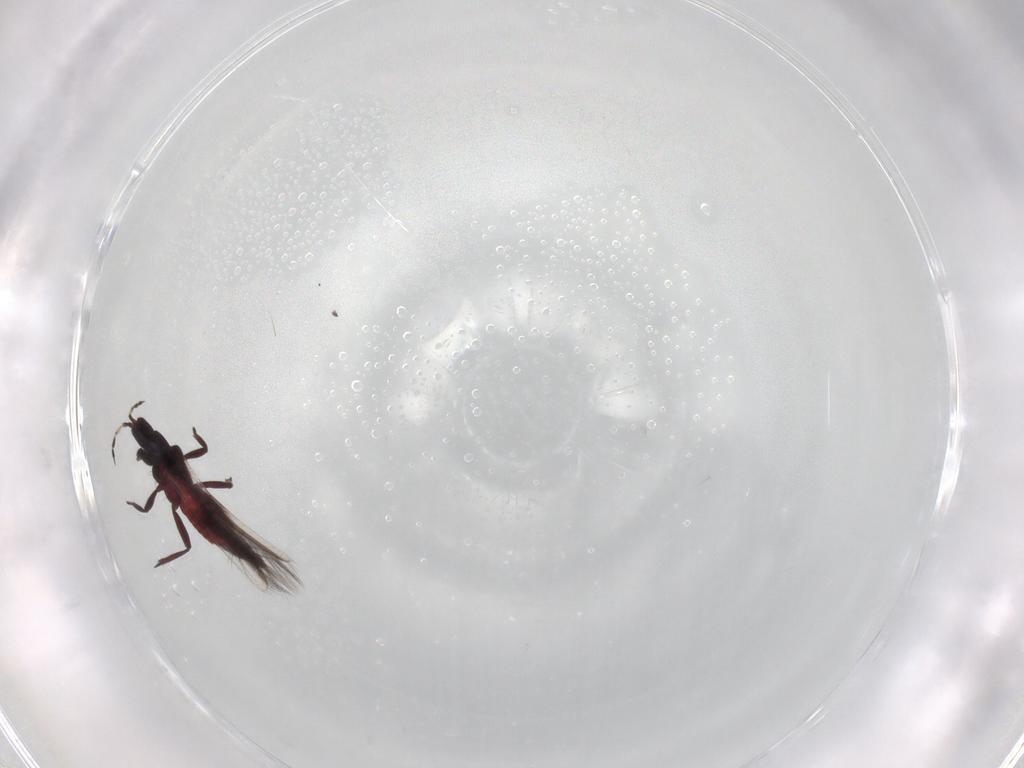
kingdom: Animalia
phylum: Arthropoda
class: Insecta
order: Thysanoptera
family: Aeolothripidae
